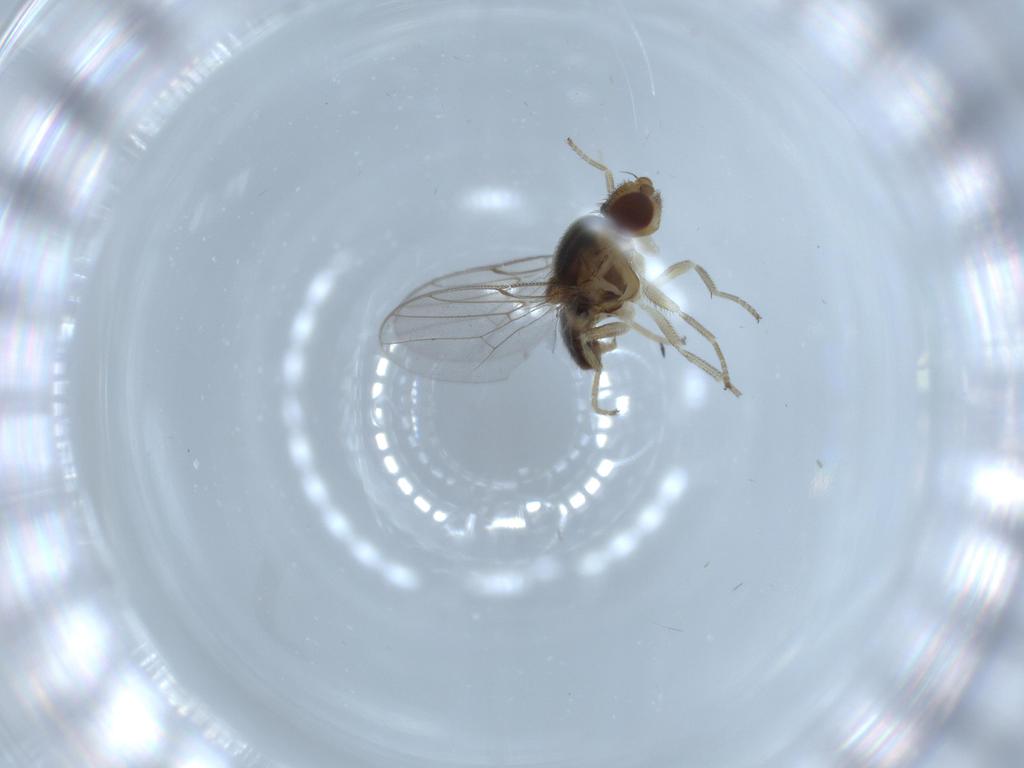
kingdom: Animalia
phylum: Arthropoda
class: Insecta
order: Diptera
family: Chloropidae
